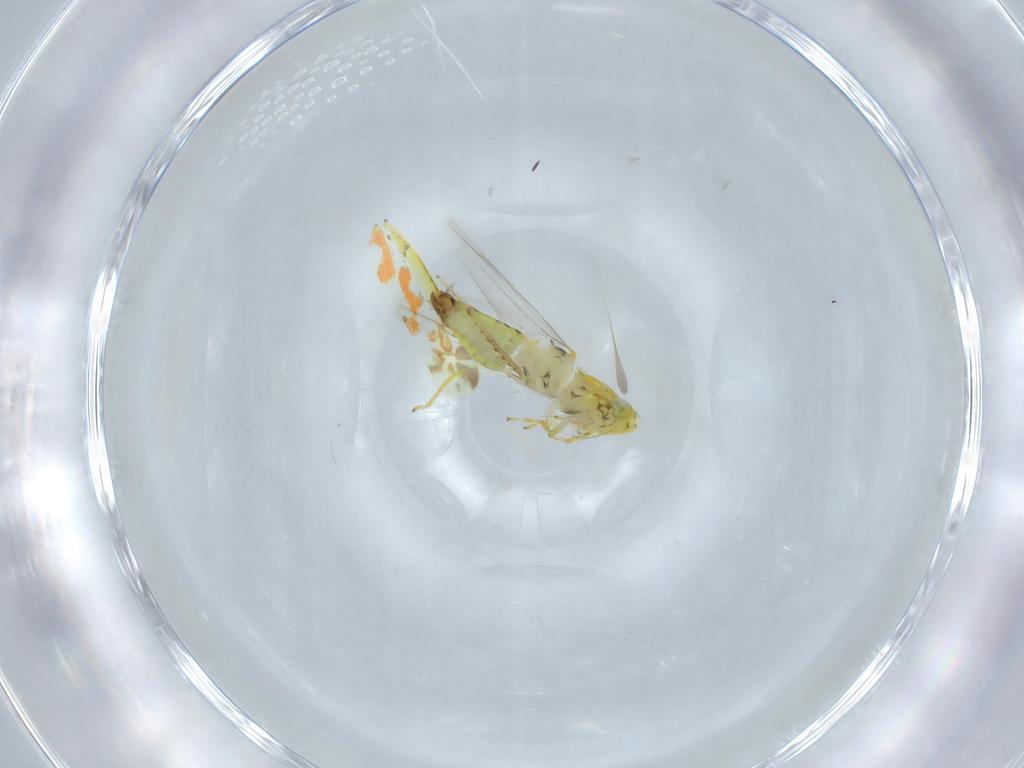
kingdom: Animalia
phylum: Arthropoda
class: Insecta
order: Hemiptera
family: Cicadellidae
